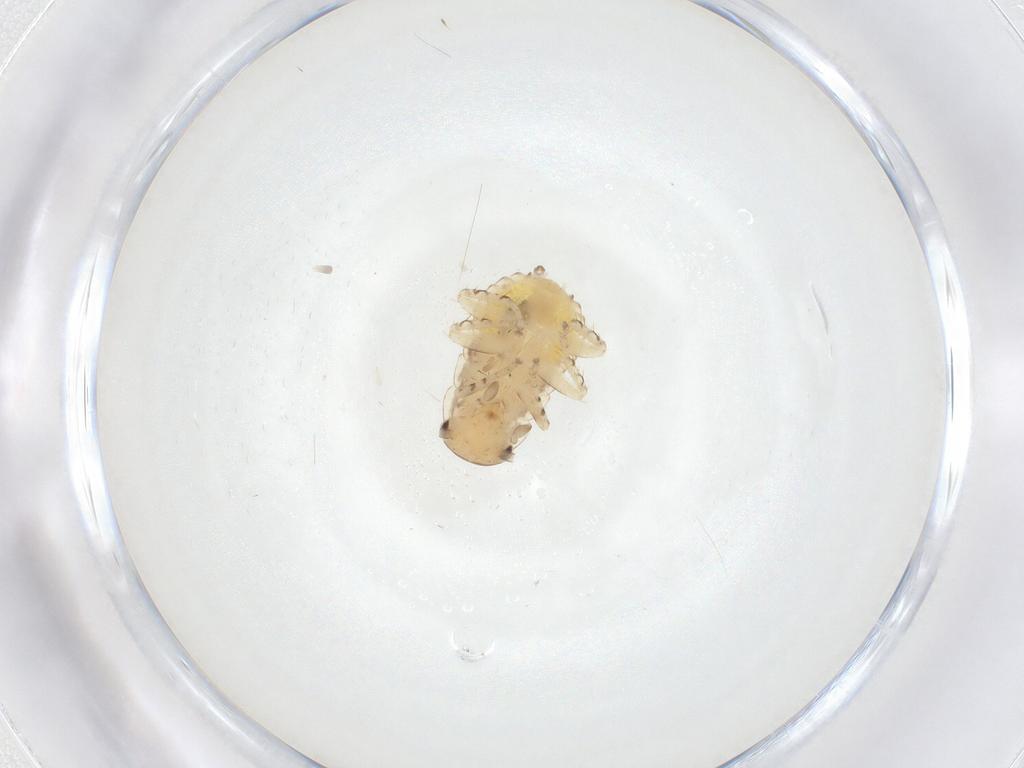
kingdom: Animalia
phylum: Arthropoda
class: Insecta
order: Blattodea
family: Ectobiidae
